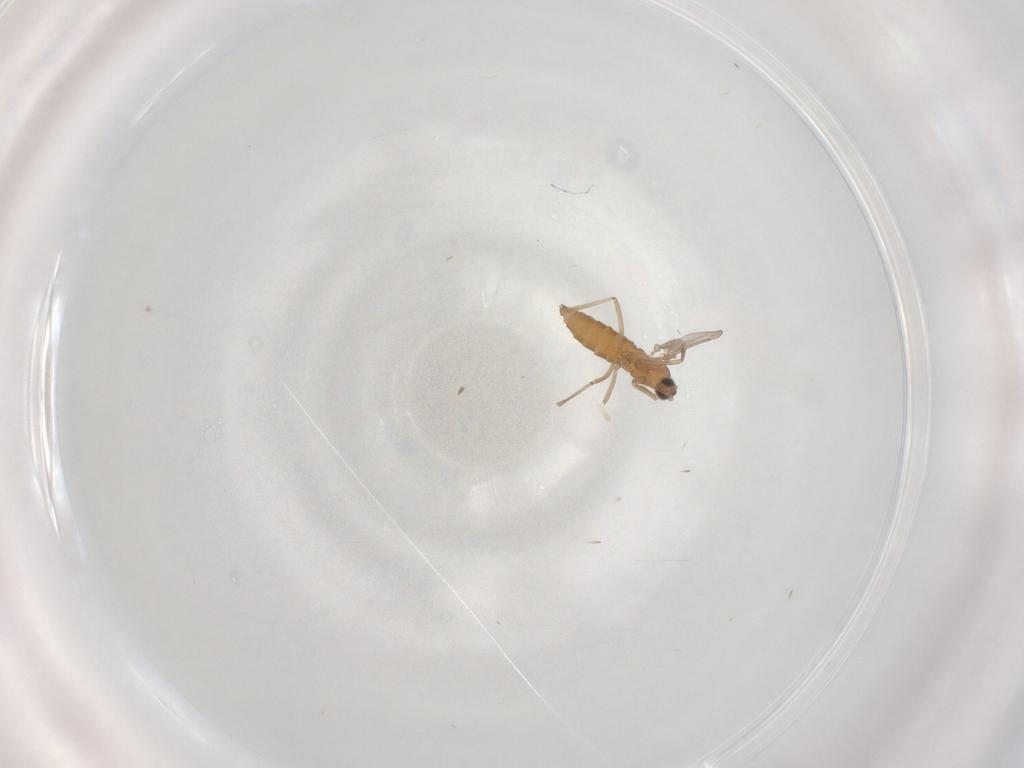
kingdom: Animalia
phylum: Arthropoda
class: Insecta
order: Diptera
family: Cecidomyiidae
